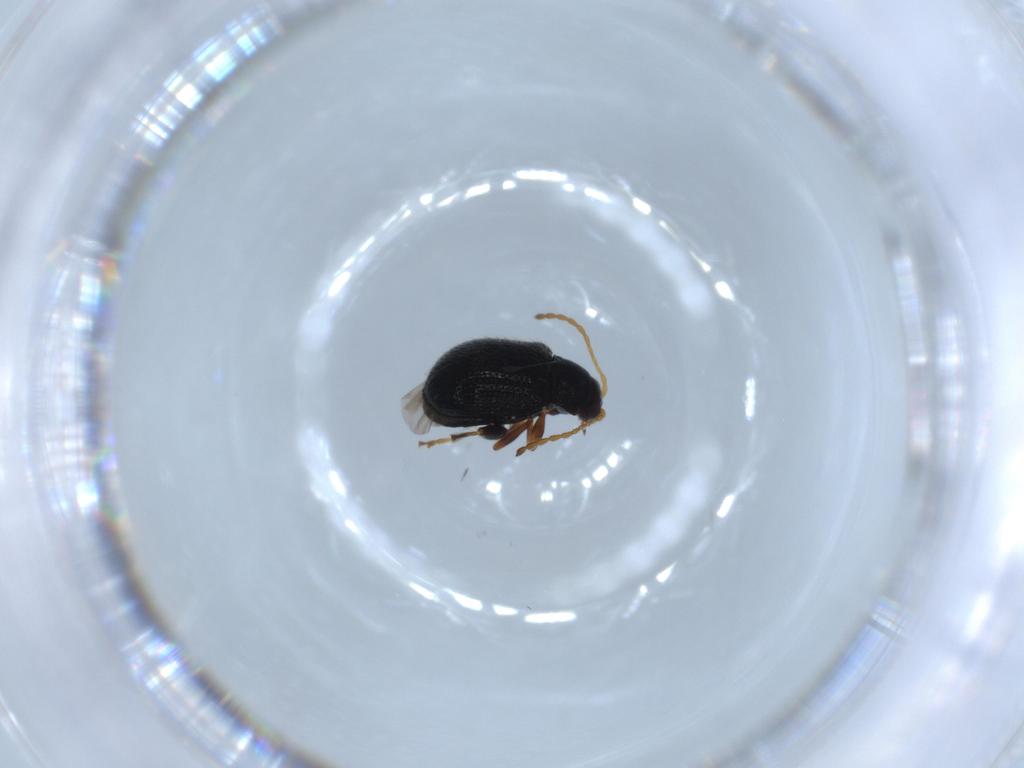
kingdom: Animalia
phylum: Arthropoda
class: Insecta
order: Coleoptera
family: Chrysomelidae
